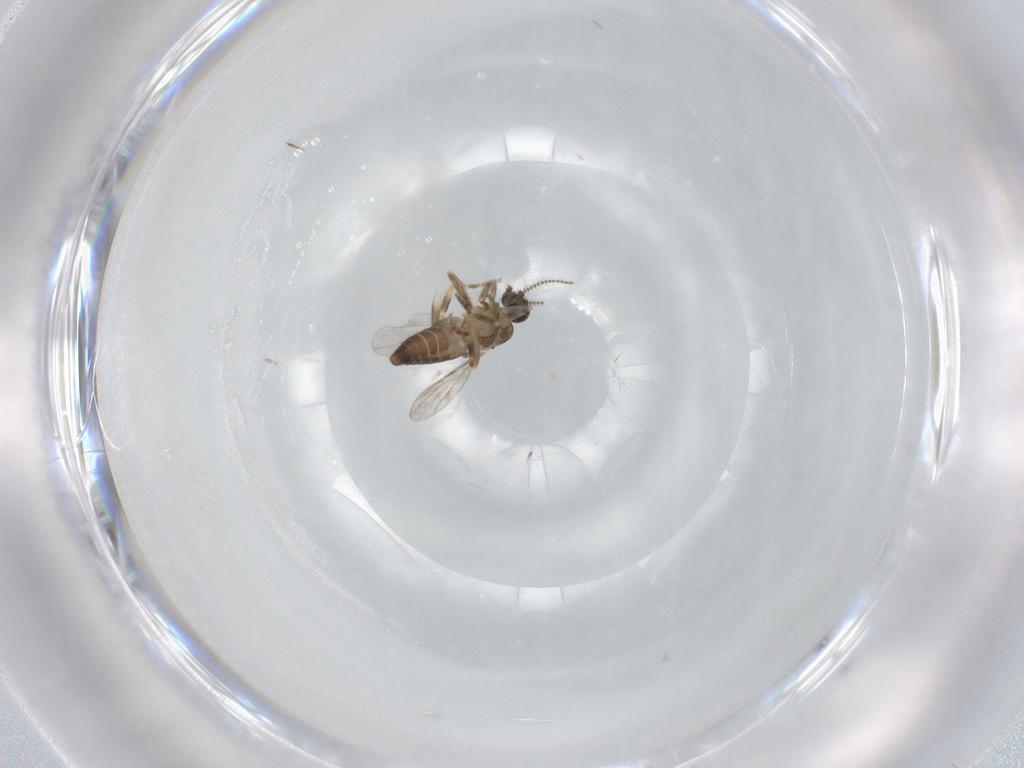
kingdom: Animalia
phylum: Arthropoda
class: Insecta
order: Diptera
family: Ceratopogonidae
